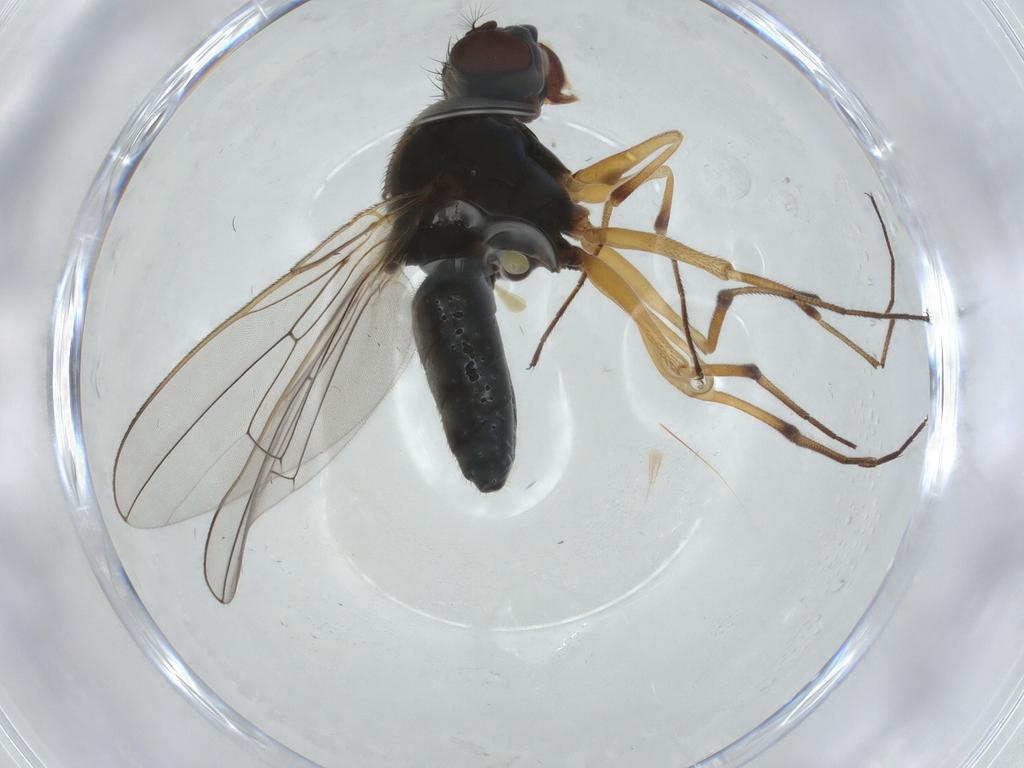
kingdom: Animalia
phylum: Arthropoda
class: Insecta
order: Diptera
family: Ephydridae
